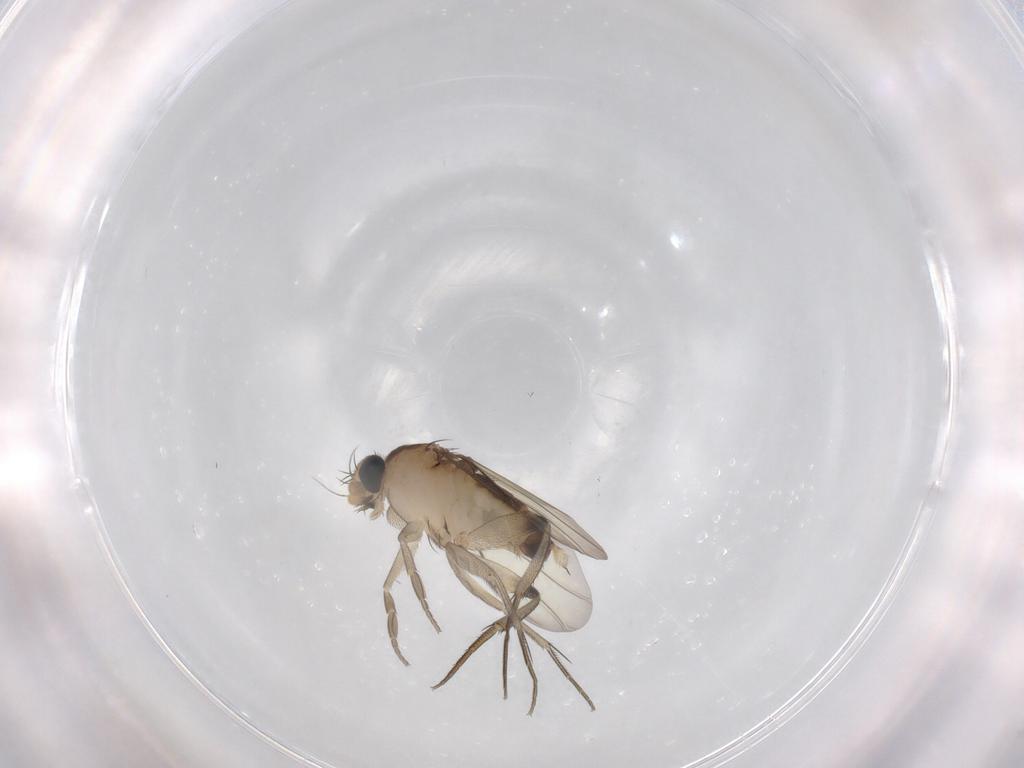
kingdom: Animalia
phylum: Arthropoda
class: Insecta
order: Diptera
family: Phoridae
